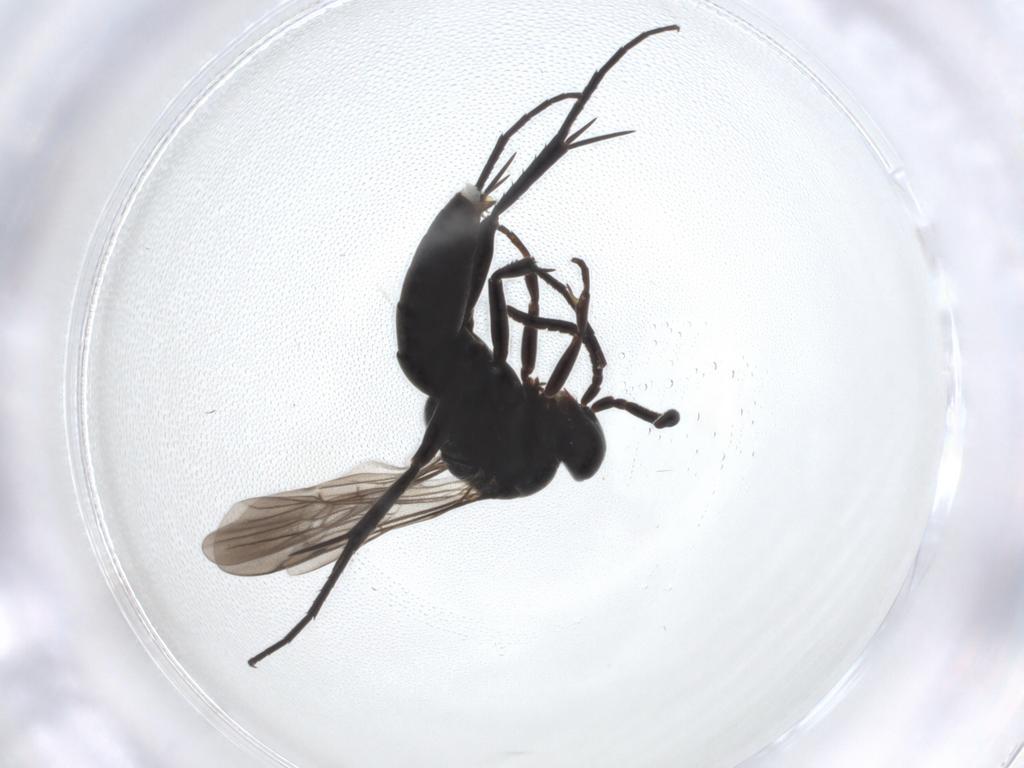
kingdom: Animalia
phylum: Arthropoda
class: Insecta
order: Hymenoptera
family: Pompilidae
